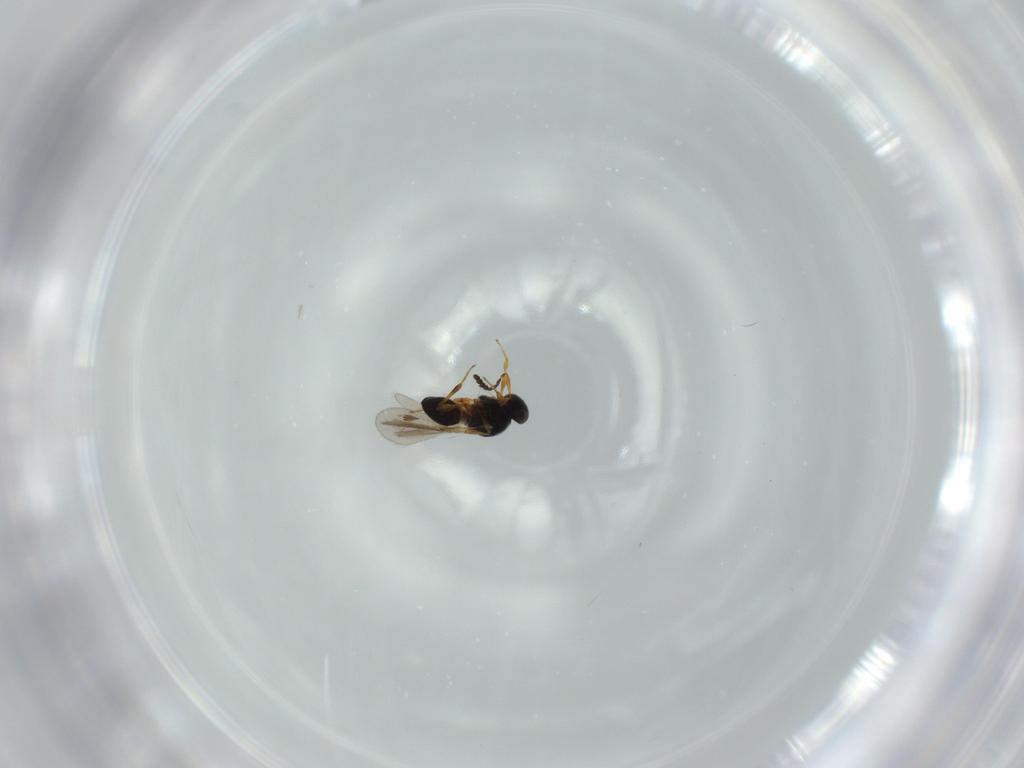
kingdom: Animalia
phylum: Arthropoda
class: Insecta
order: Hymenoptera
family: Platygastridae
